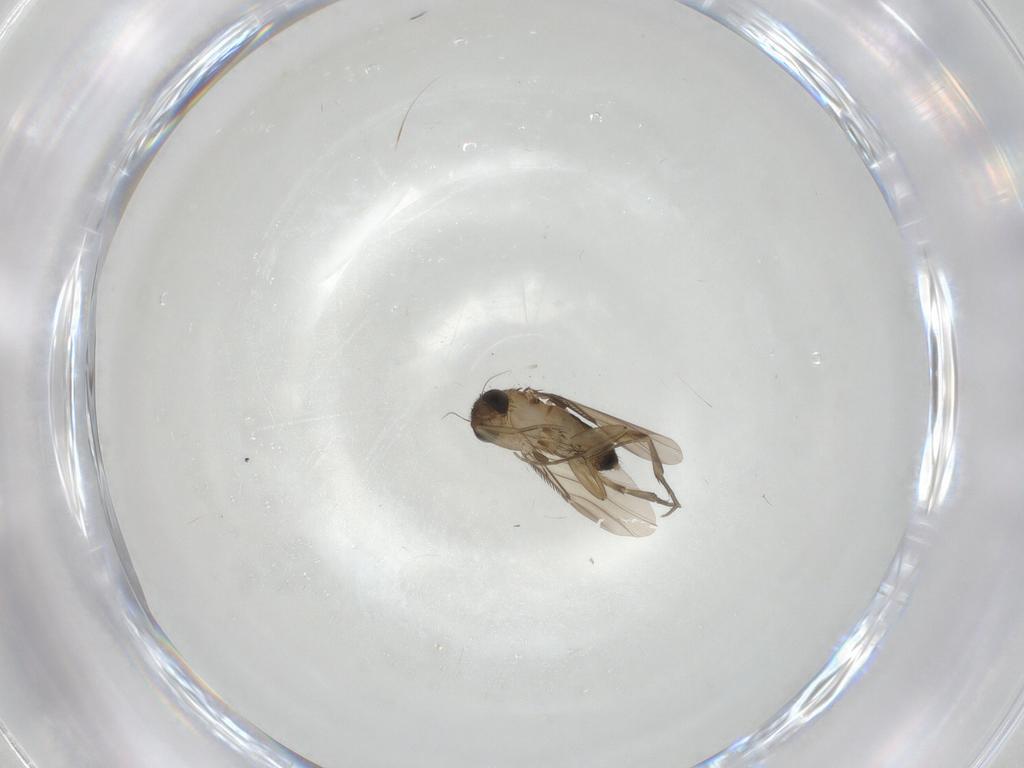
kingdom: Animalia
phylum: Arthropoda
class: Insecta
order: Diptera
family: Phoridae
